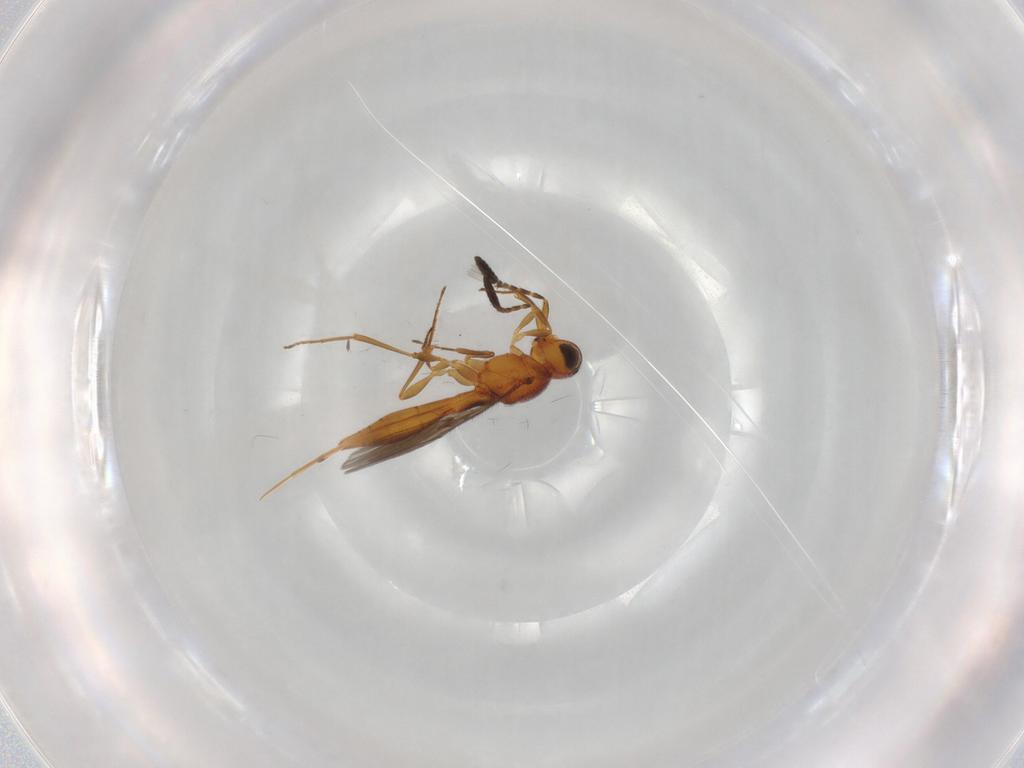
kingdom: Animalia
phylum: Arthropoda
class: Insecta
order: Hymenoptera
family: Scelionidae
